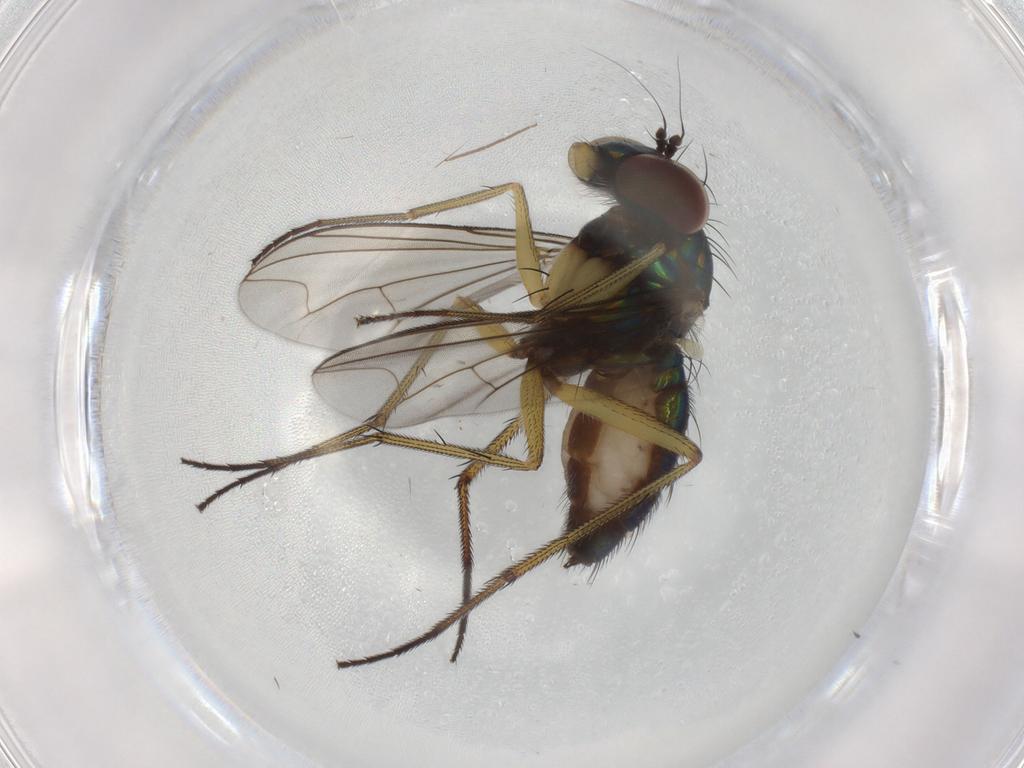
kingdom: Animalia
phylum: Arthropoda
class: Insecta
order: Diptera
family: Dolichopodidae
